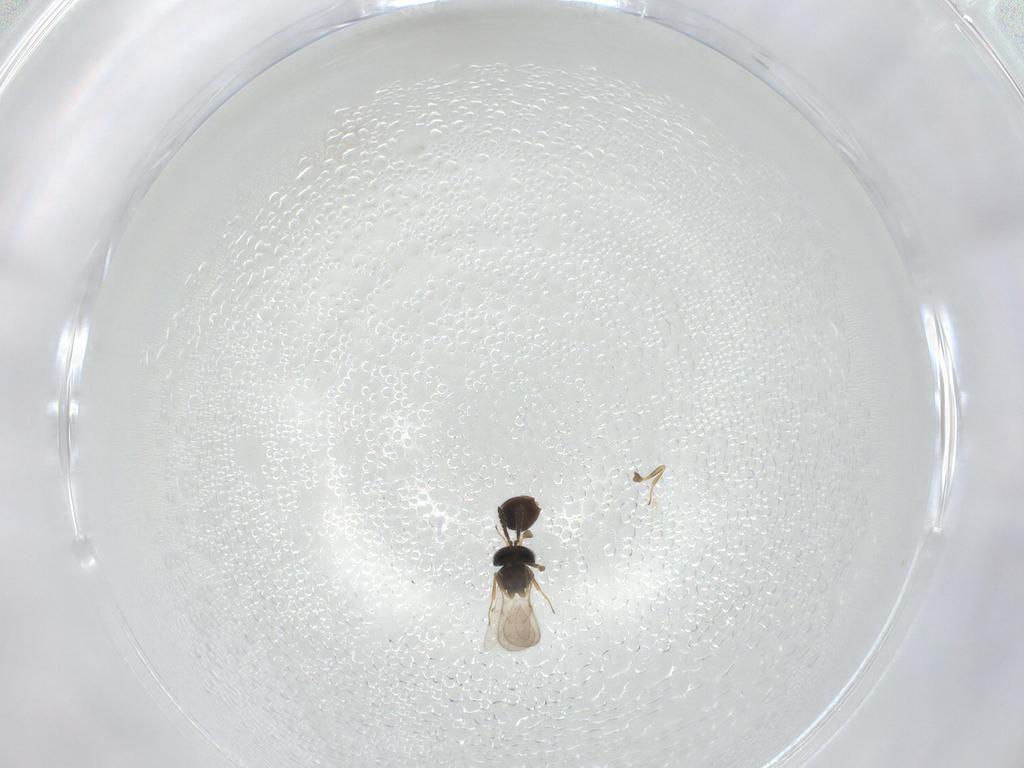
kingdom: Animalia
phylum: Arthropoda
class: Insecta
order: Hymenoptera
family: Scelionidae
